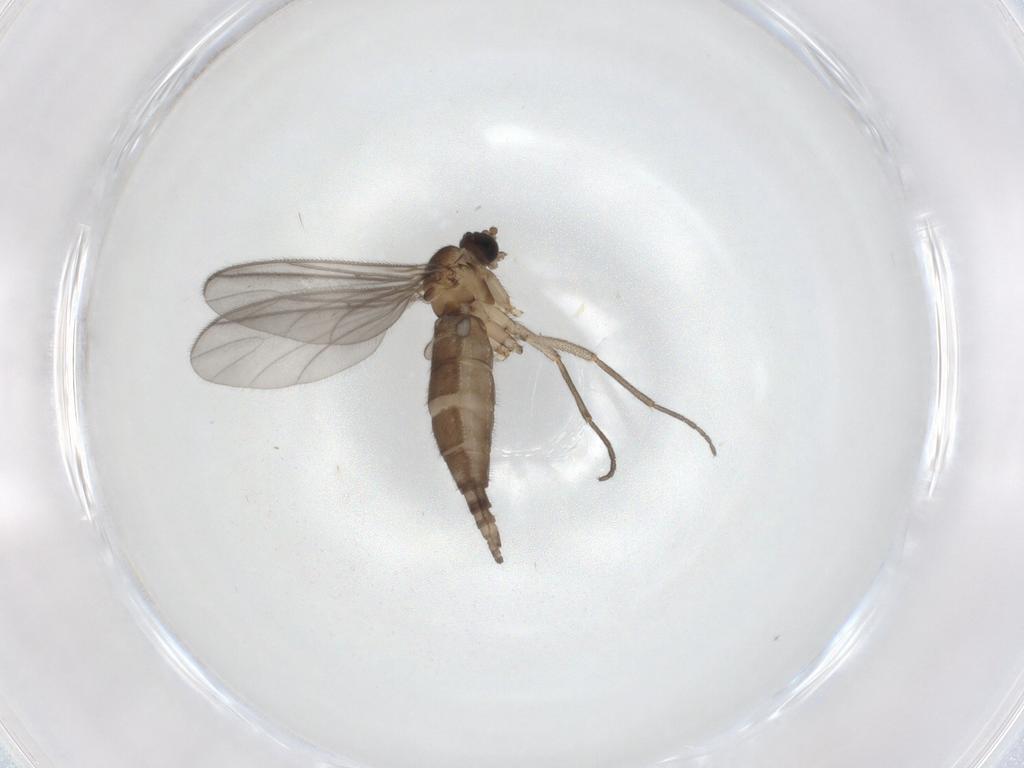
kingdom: Animalia
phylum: Arthropoda
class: Insecta
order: Diptera
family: Sciaridae
